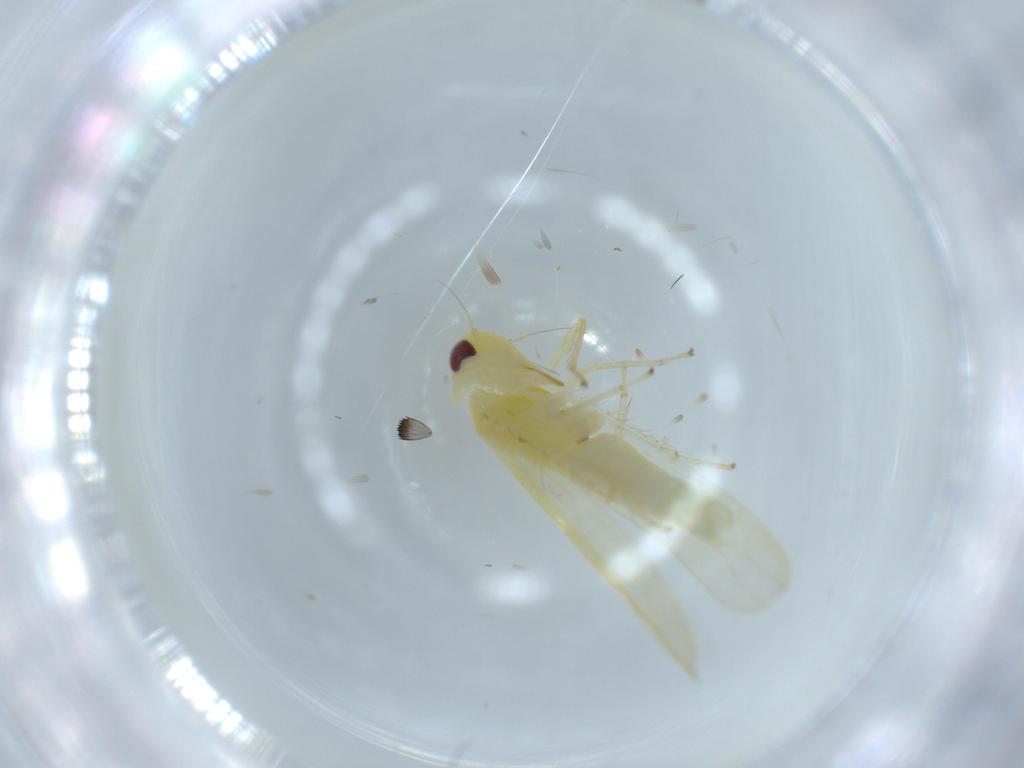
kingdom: Animalia
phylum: Arthropoda
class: Insecta
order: Hemiptera
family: Cicadellidae
